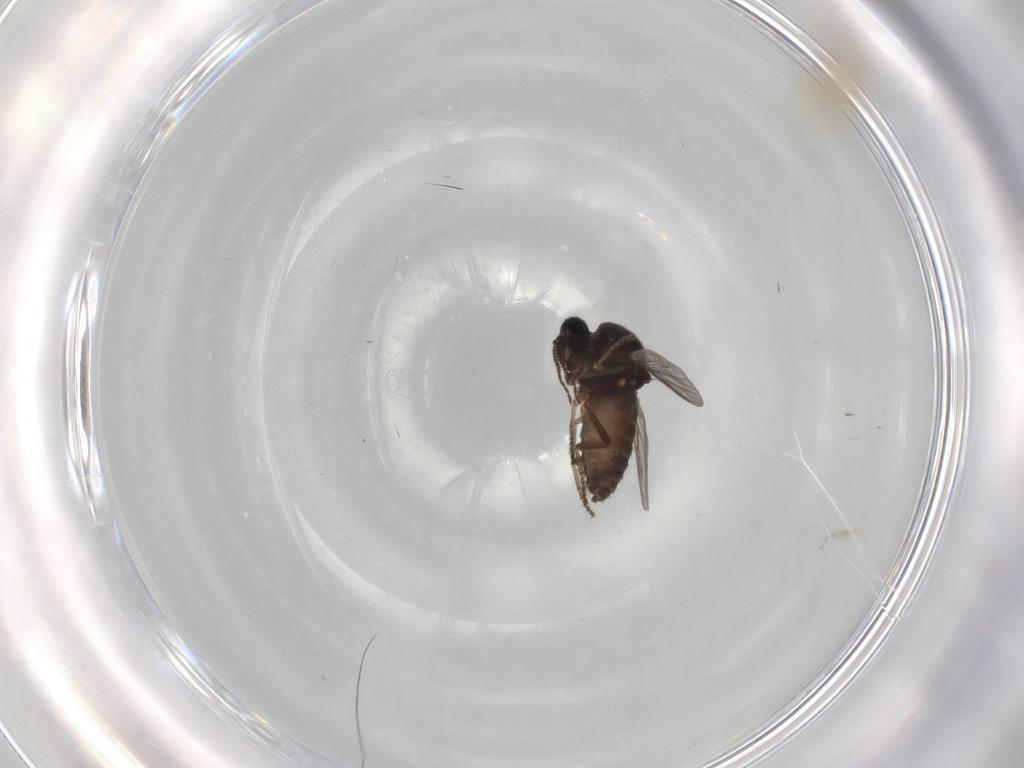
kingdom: Animalia
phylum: Arthropoda
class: Insecta
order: Diptera
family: Ceratopogonidae
